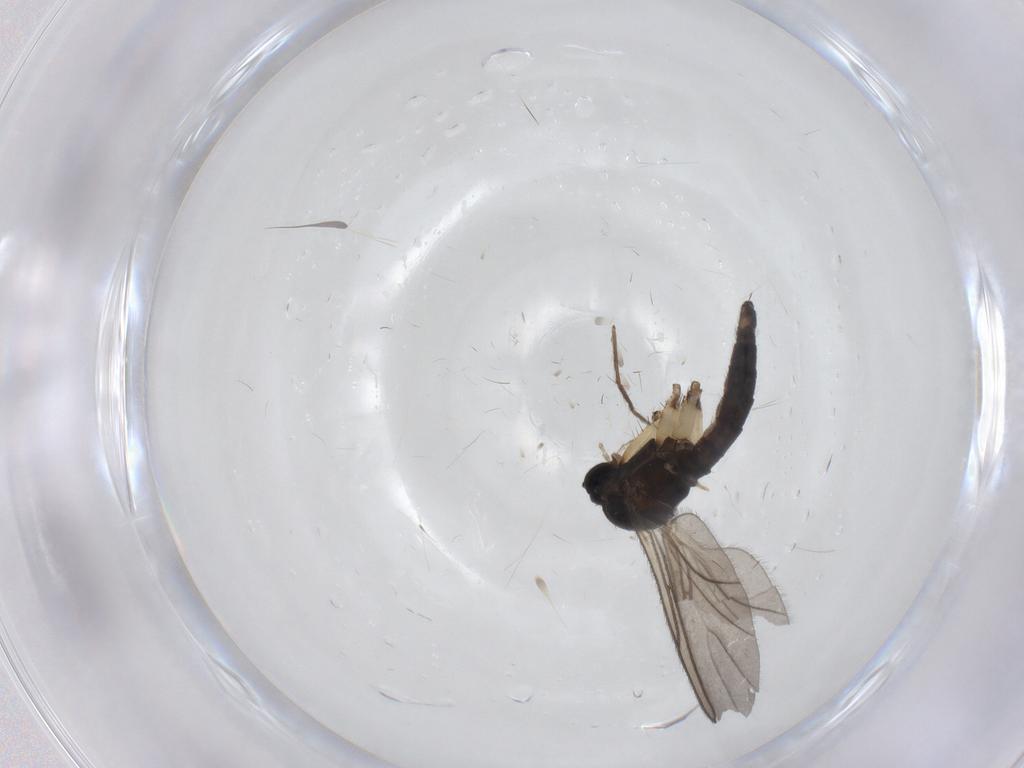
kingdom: Animalia
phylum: Arthropoda
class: Insecta
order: Diptera
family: Sciaridae
